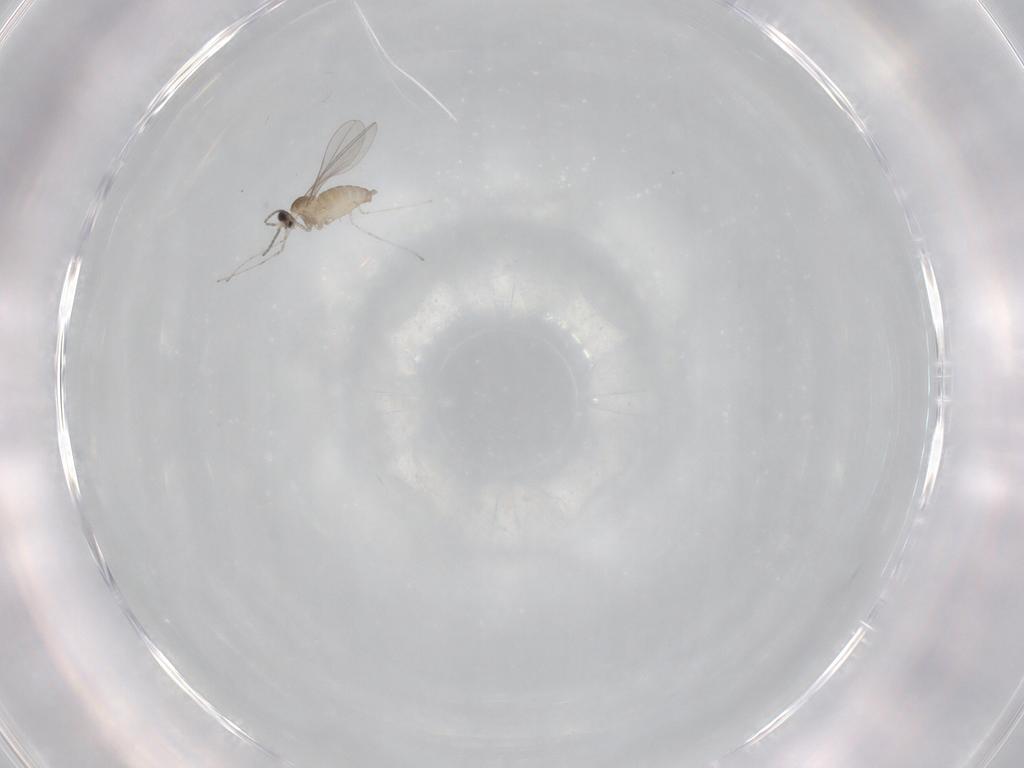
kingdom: Animalia
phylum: Arthropoda
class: Insecta
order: Diptera
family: Cecidomyiidae
